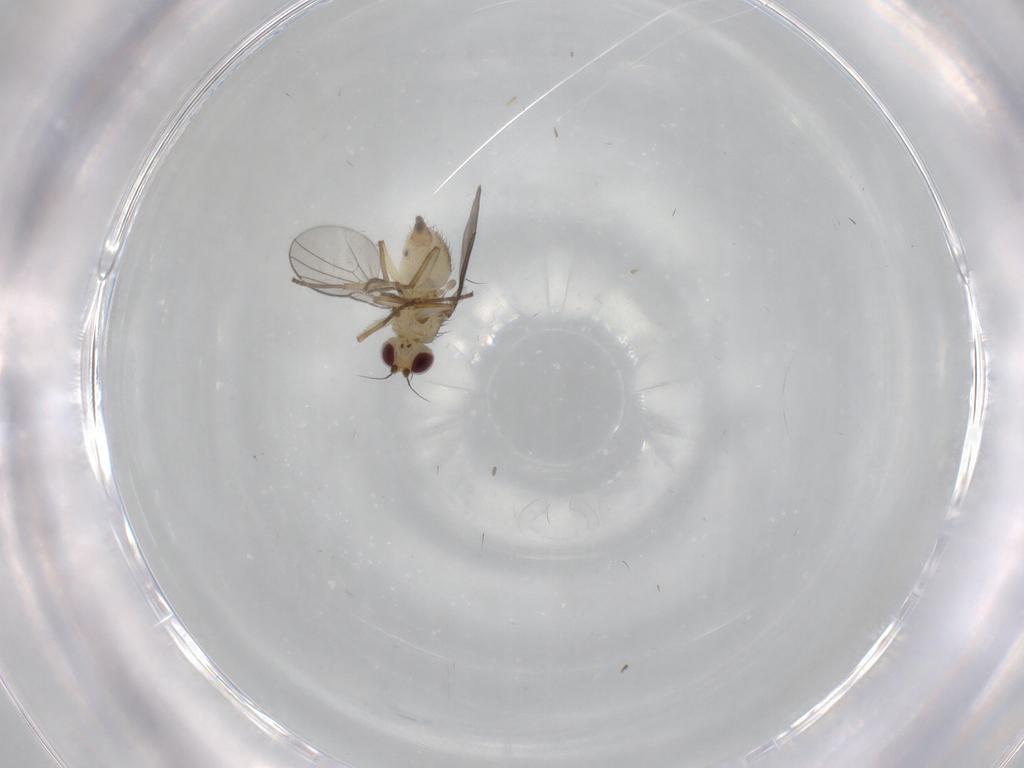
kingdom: Animalia
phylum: Arthropoda
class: Insecta
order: Diptera
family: Agromyzidae
